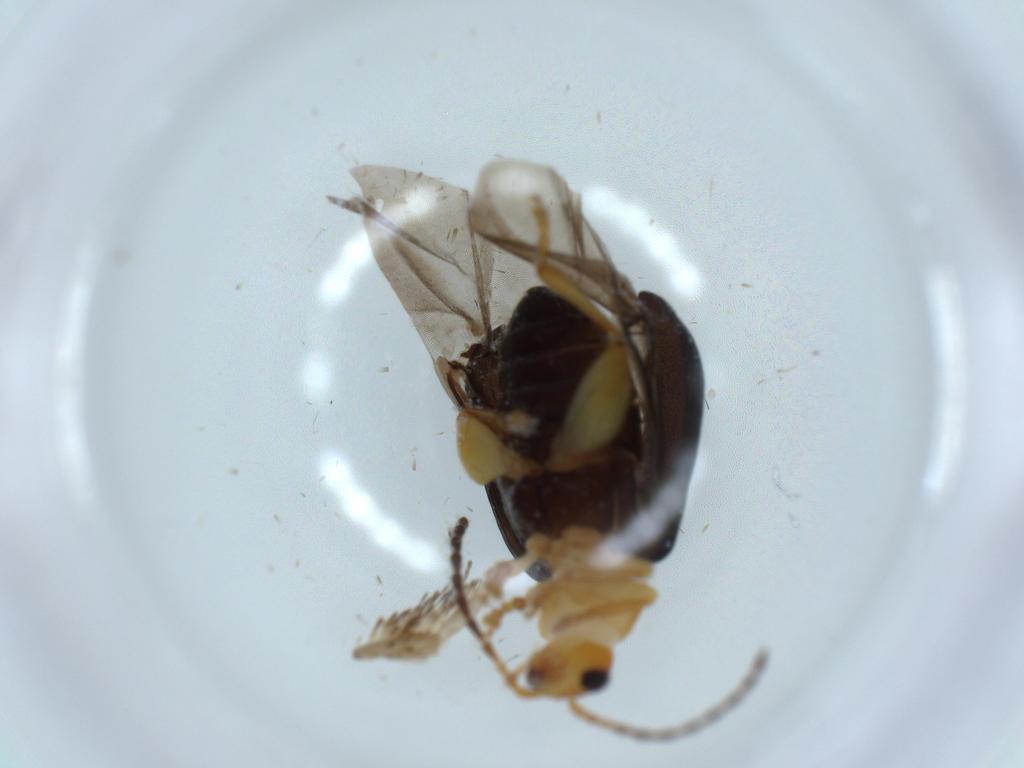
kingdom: Animalia
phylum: Arthropoda
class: Insecta
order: Coleoptera
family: Chrysomelidae
